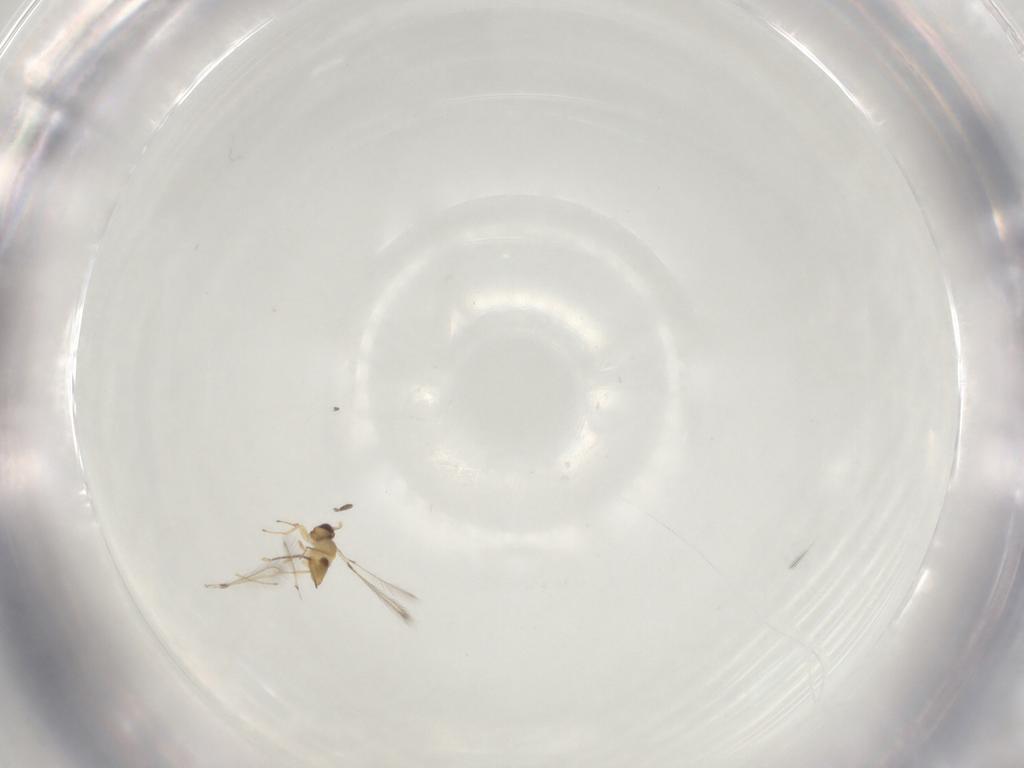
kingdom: Animalia
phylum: Arthropoda
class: Insecta
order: Hymenoptera
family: Mymaridae
